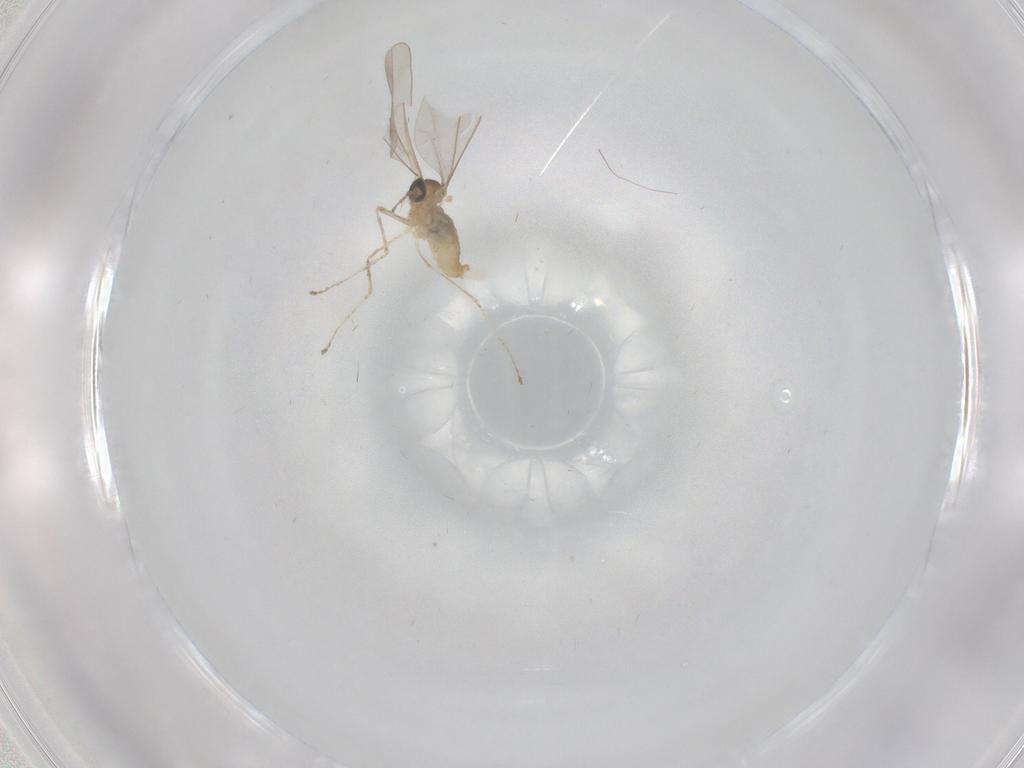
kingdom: Animalia
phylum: Arthropoda
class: Insecta
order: Diptera
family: Cecidomyiidae
